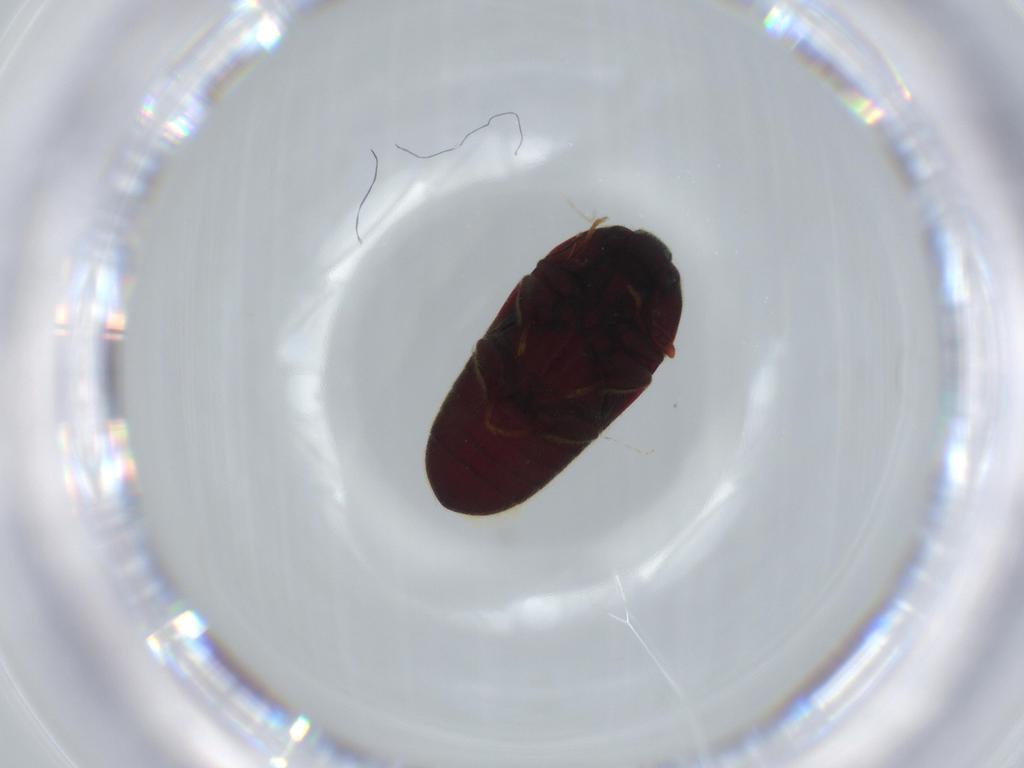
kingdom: Animalia
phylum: Arthropoda
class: Insecta
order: Coleoptera
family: Throscidae
